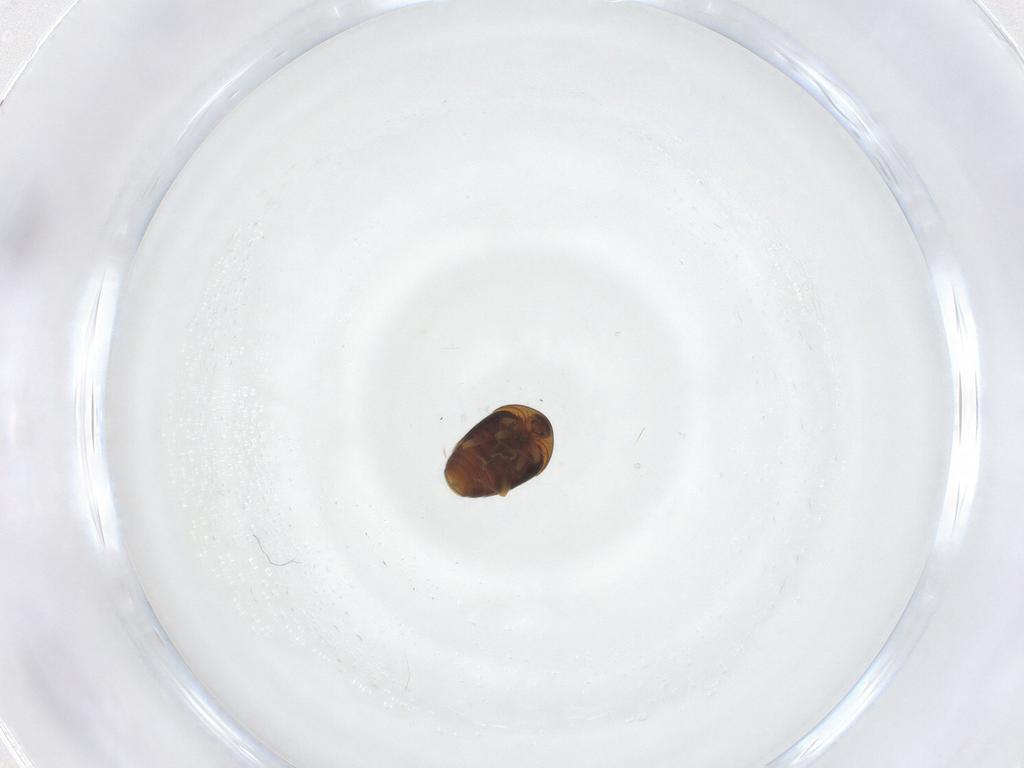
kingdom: Animalia
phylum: Arthropoda
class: Insecta
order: Coleoptera
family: Corylophidae
